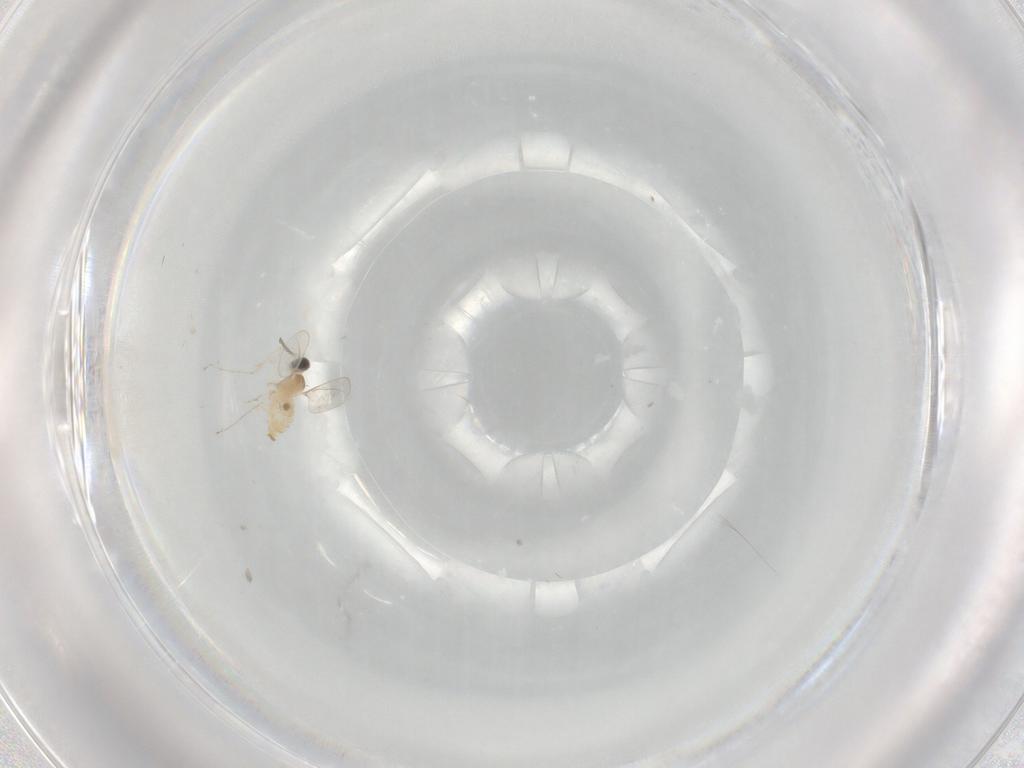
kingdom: Animalia
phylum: Arthropoda
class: Insecta
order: Diptera
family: Cecidomyiidae
